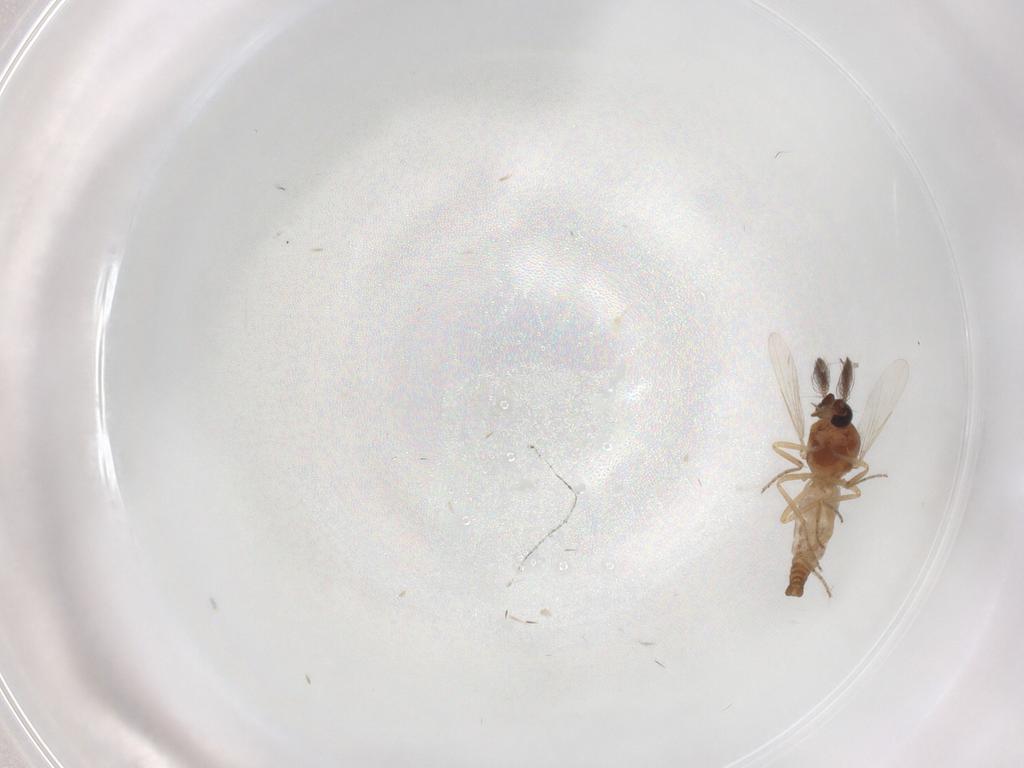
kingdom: Animalia
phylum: Arthropoda
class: Insecta
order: Diptera
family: Ceratopogonidae
